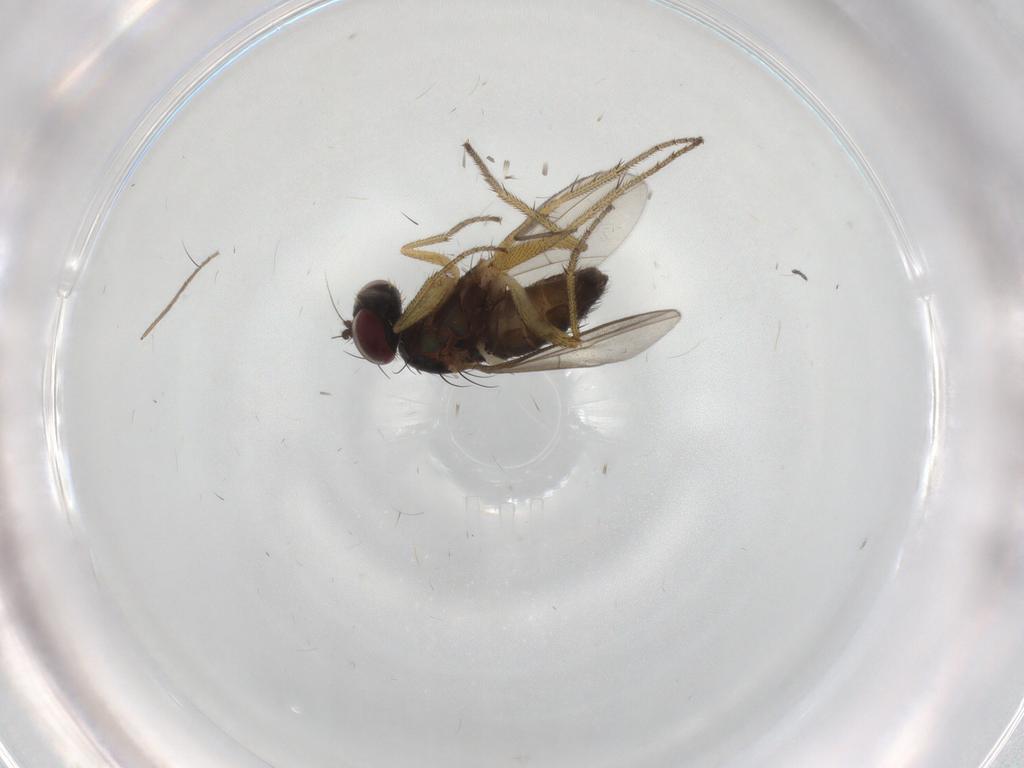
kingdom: Animalia
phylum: Arthropoda
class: Insecta
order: Diptera
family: Sciaridae
